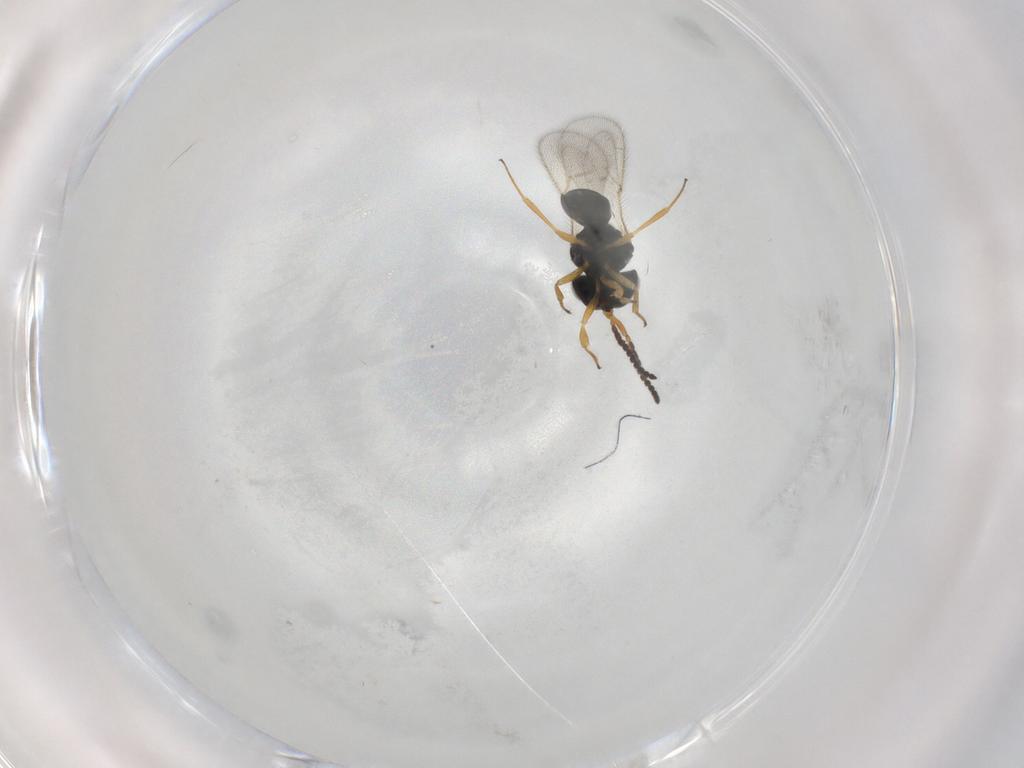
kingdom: Animalia
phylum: Arthropoda
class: Insecta
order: Hymenoptera
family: Scelionidae
